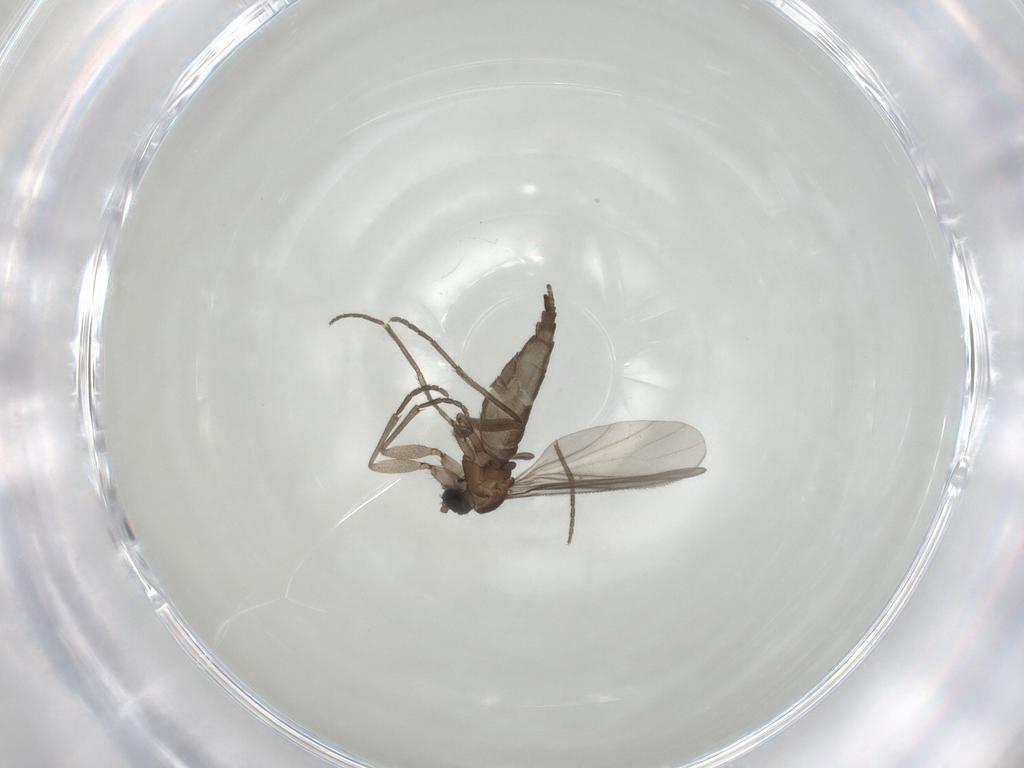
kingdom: Animalia
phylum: Arthropoda
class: Insecta
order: Diptera
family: Sciaridae
